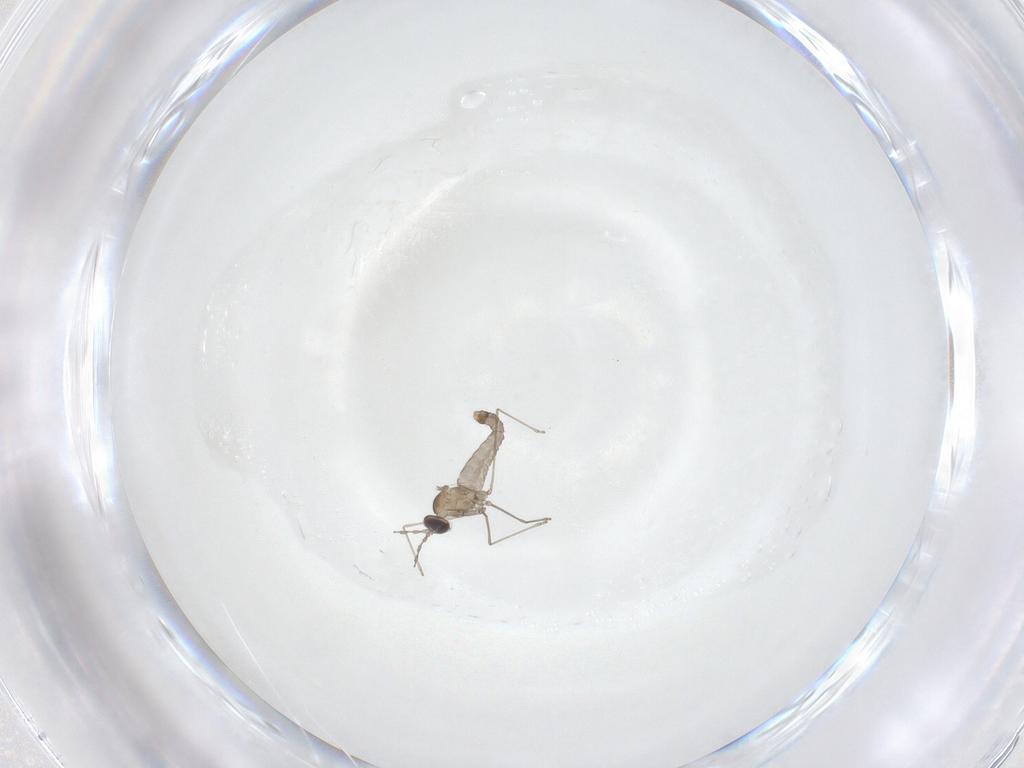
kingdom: Animalia
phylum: Arthropoda
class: Insecta
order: Diptera
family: Cecidomyiidae
